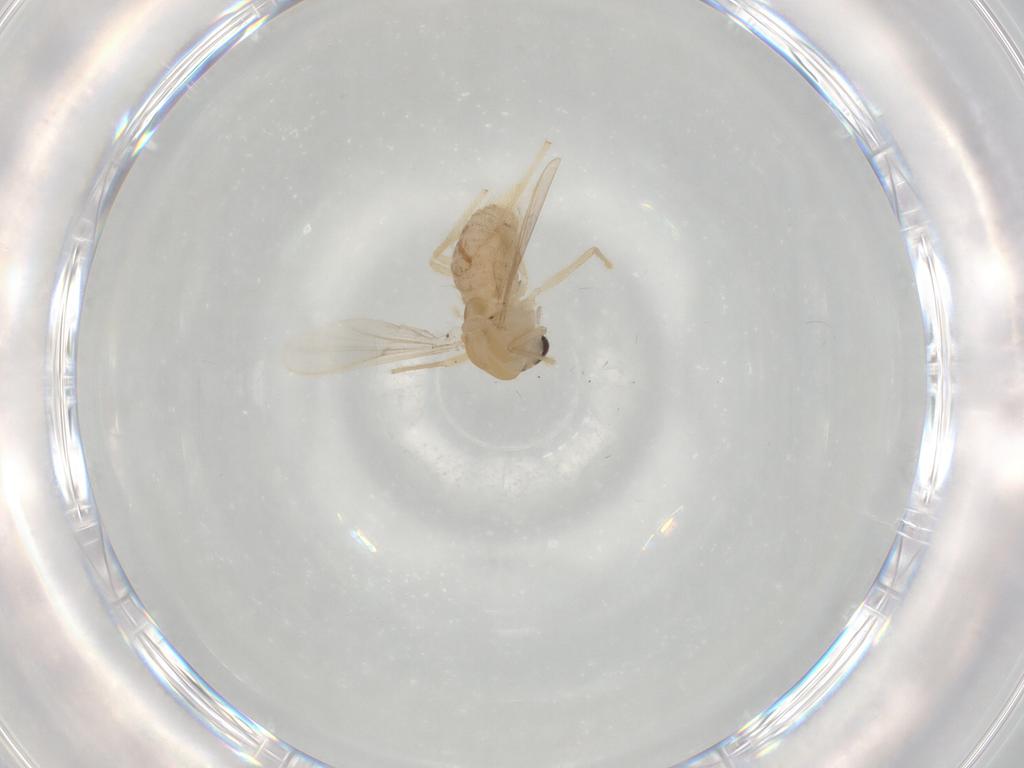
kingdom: Animalia
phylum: Arthropoda
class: Insecta
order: Diptera
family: Chironomidae
